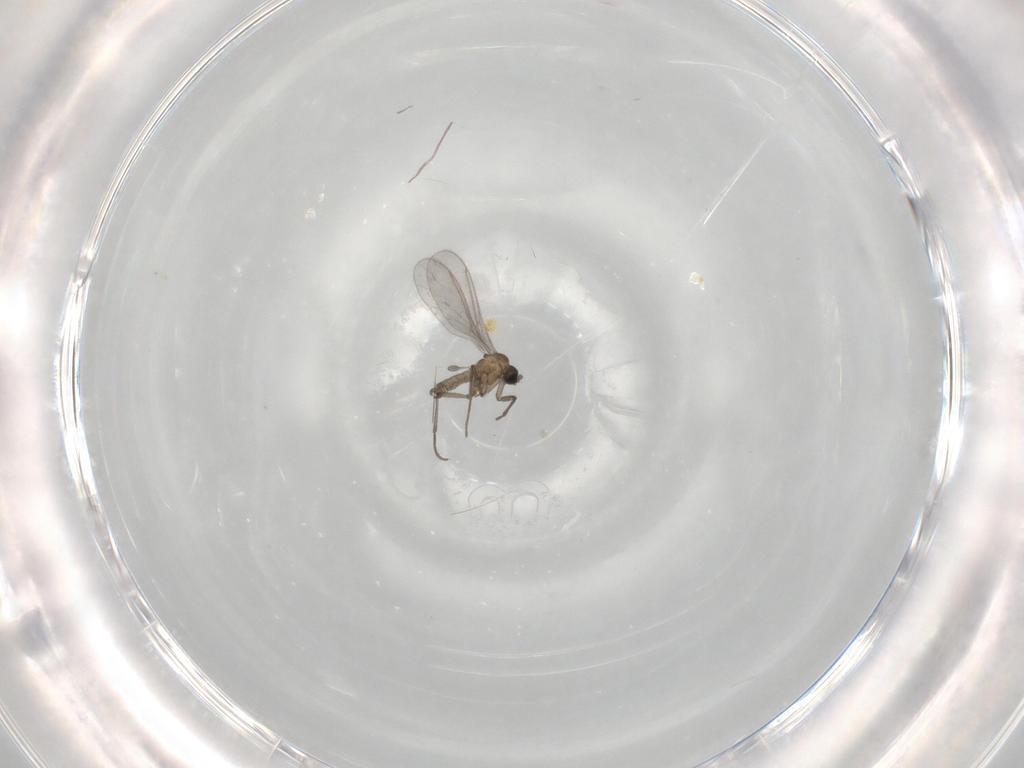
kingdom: Animalia
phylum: Arthropoda
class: Insecta
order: Diptera
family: Sciaridae
